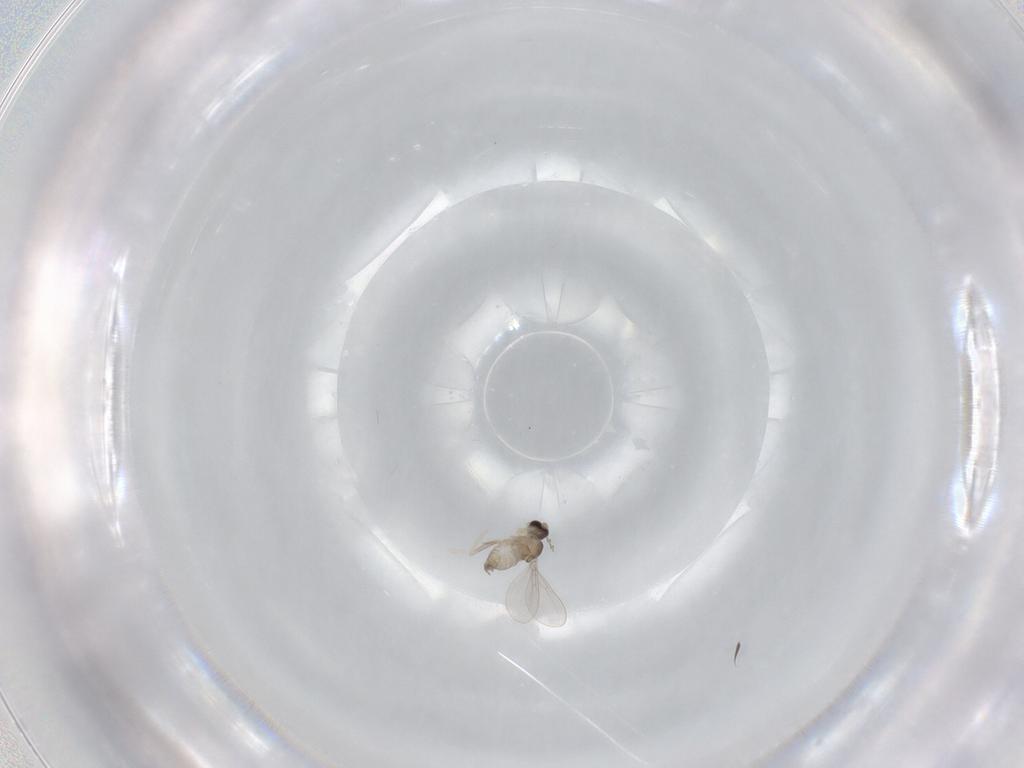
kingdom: Animalia
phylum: Arthropoda
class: Insecta
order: Diptera
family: Cecidomyiidae
